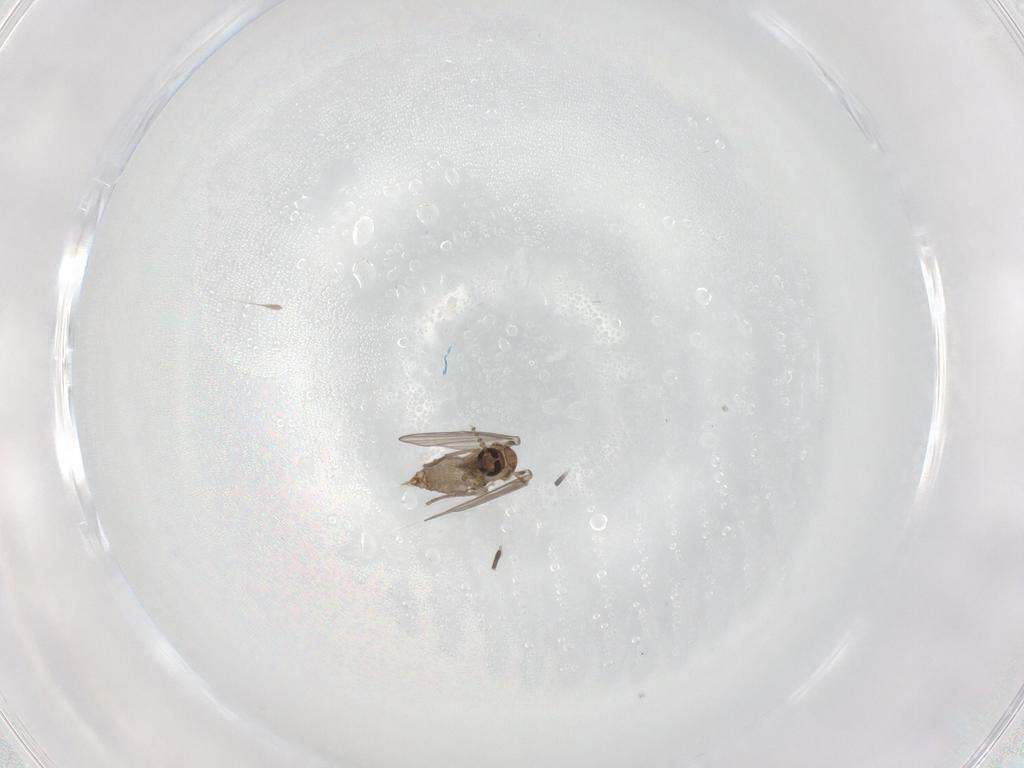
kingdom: Animalia
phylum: Arthropoda
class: Insecta
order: Diptera
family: Psychodidae
